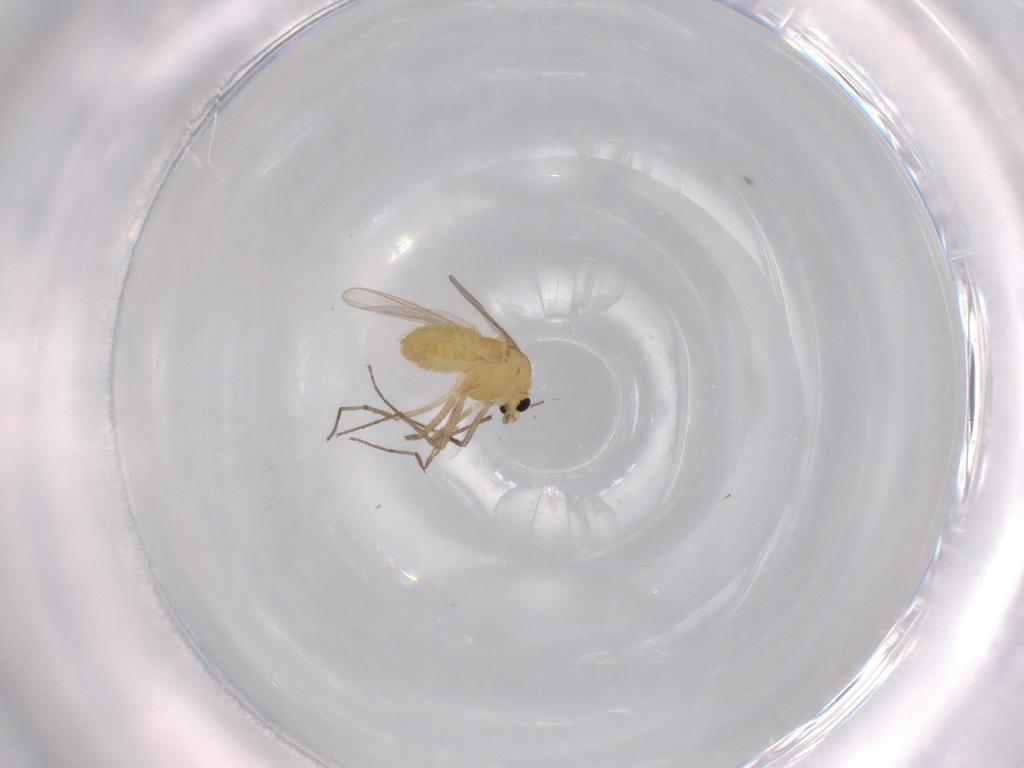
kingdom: Animalia
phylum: Arthropoda
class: Insecta
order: Diptera
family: Chironomidae
